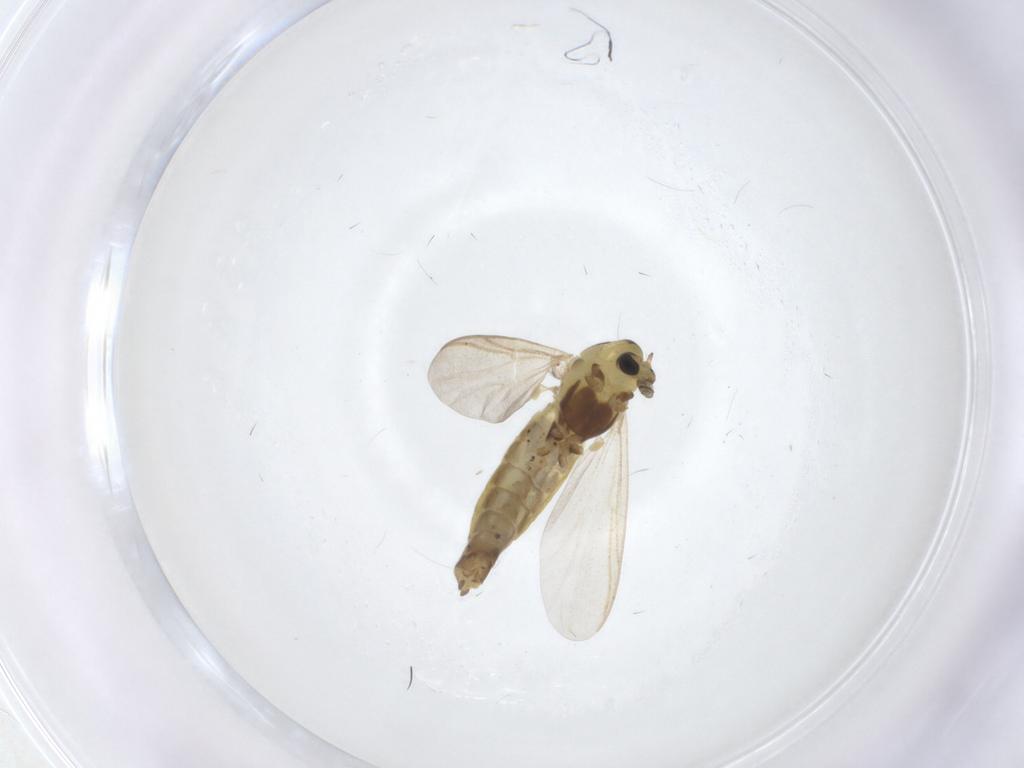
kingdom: Animalia
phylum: Arthropoda
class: Insecta
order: Diptera
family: Chironomidae
